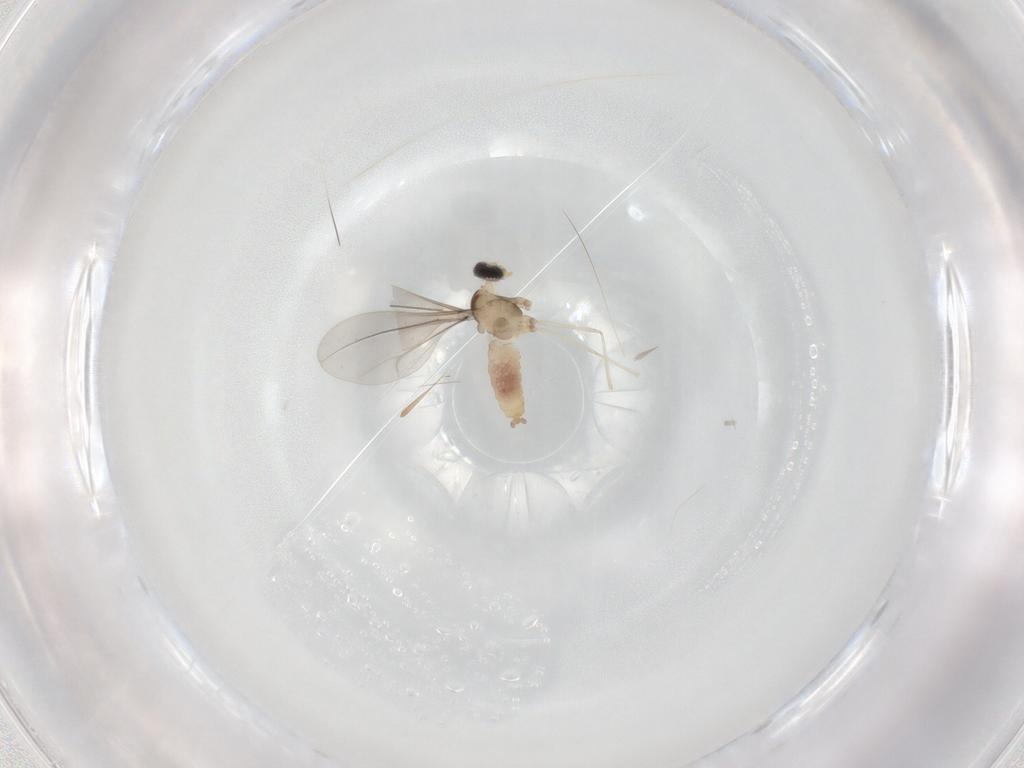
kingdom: Animalia
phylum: Arthropoda
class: Insecta
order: Diptera
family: Cecidomyiidae
